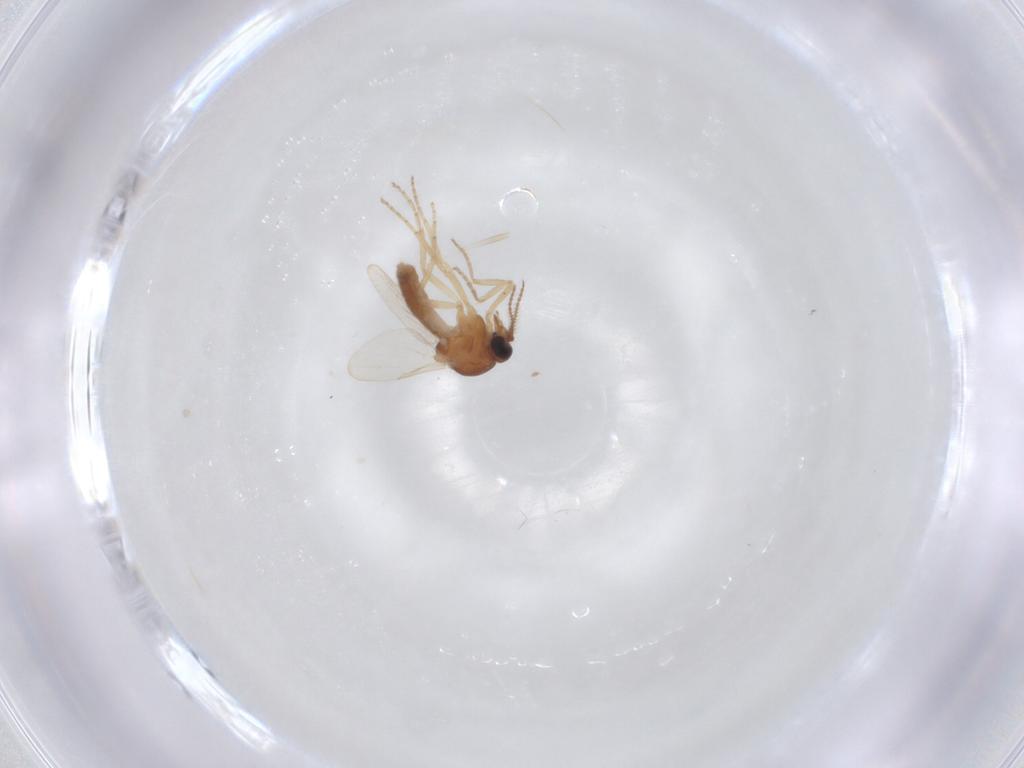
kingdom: Animalia
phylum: Arthropoda
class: Insecta
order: Diptera
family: Ceratopogonidae
